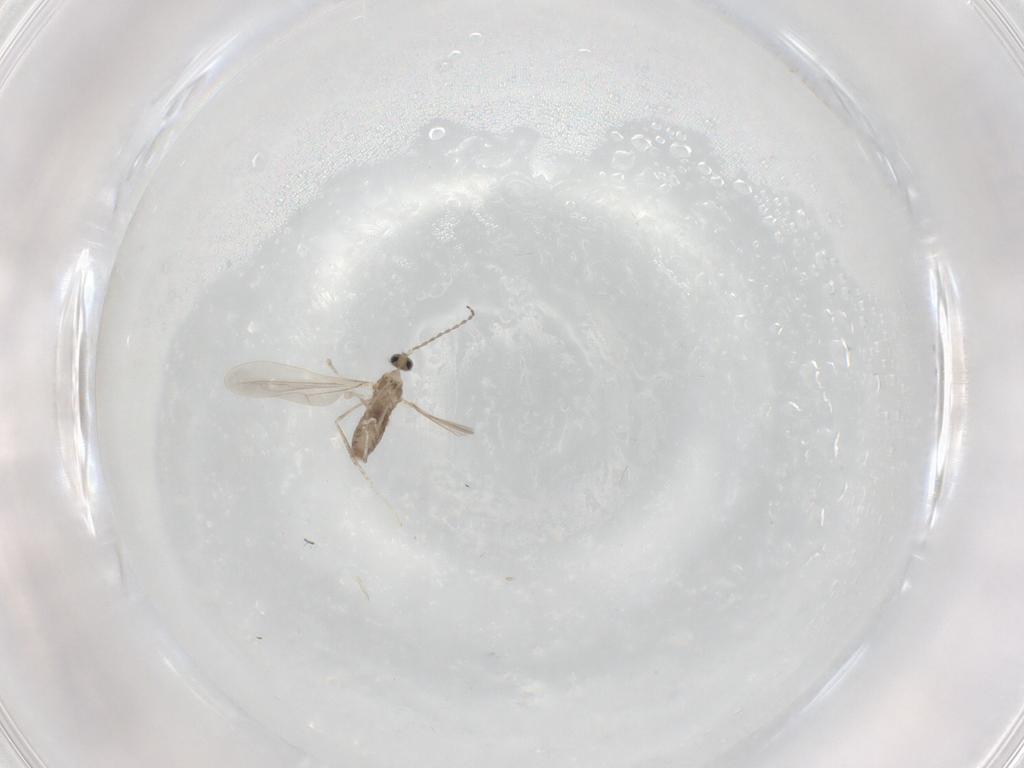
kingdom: Animalia
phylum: Arthropoda
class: Insecta
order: Diptera
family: Cecidomyiidae
